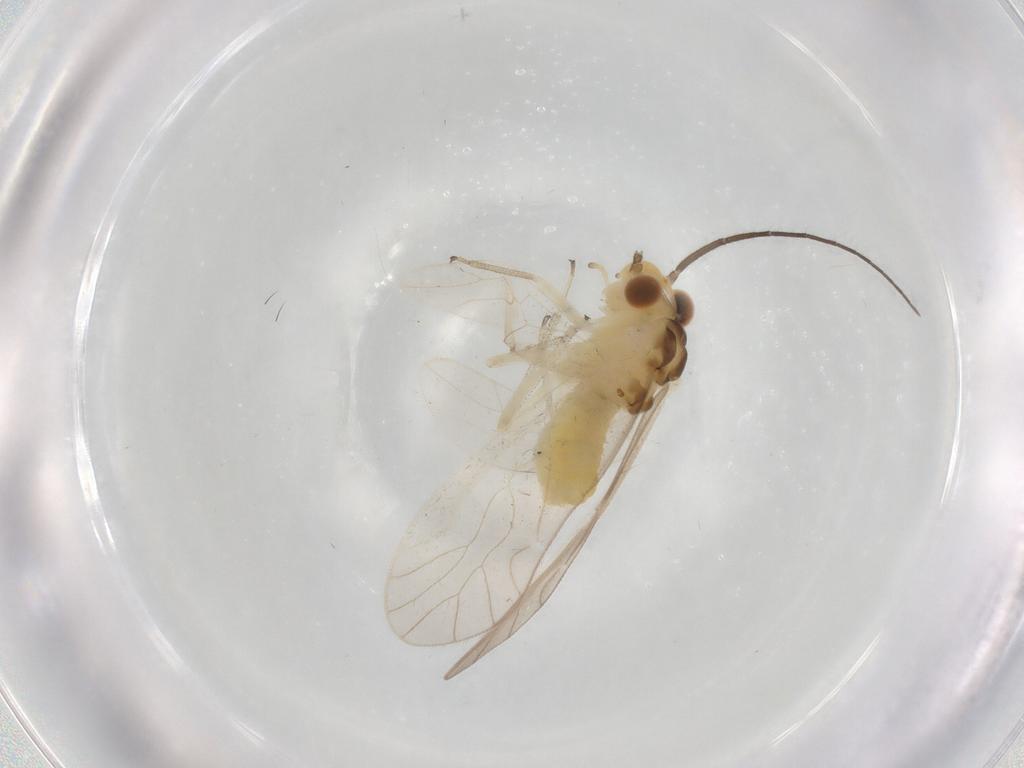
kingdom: Animalia
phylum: Arthropoda
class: Insecta
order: Psocodea
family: Caeciliusidae
